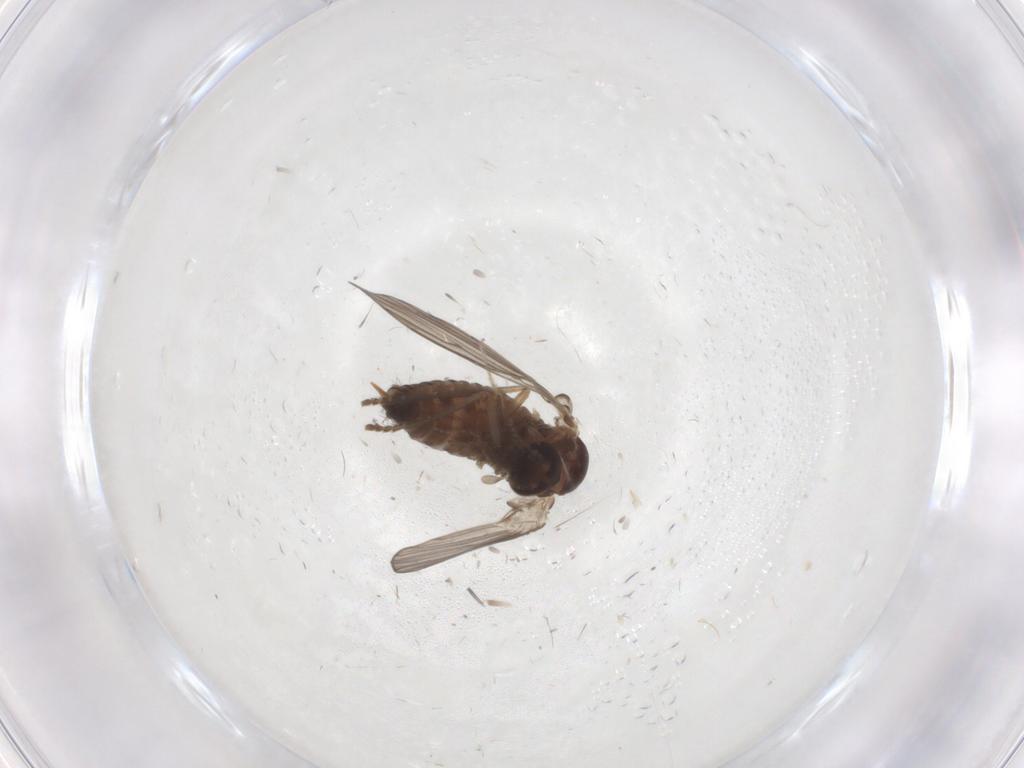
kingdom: Animalia
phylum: Arthropoda
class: Insecta
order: Diptera
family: Psychodidae
